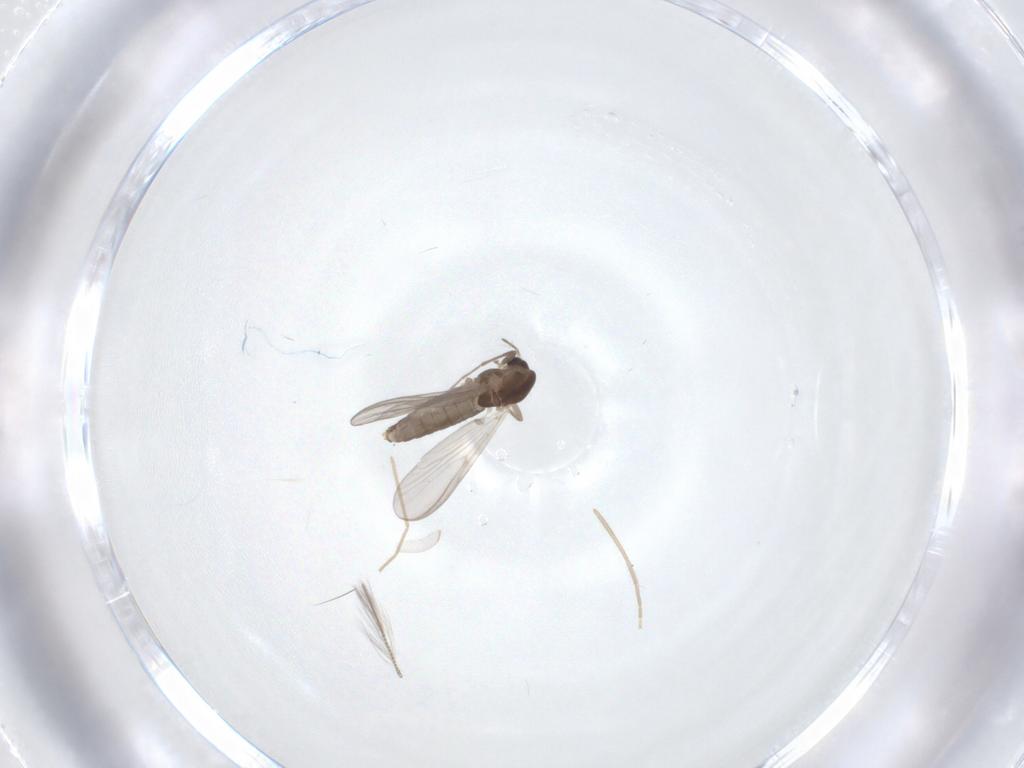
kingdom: Animalia
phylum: Arthropoda
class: Insecta
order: Diptera
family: Chironomidae
